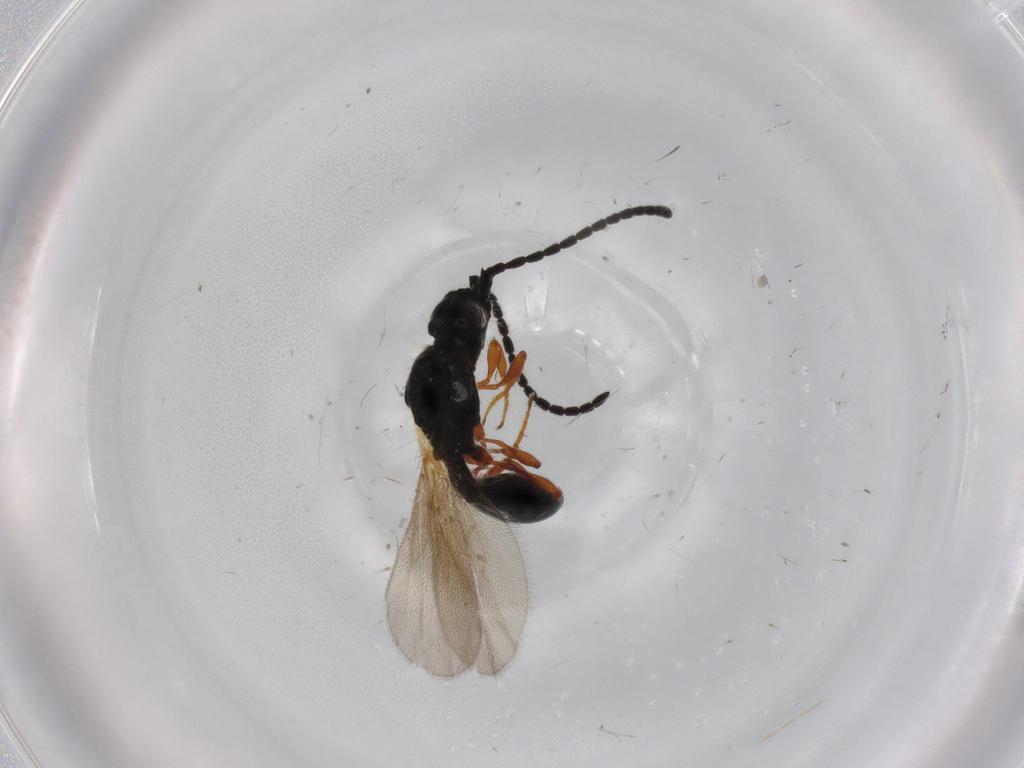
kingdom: Animalia
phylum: Arthropoda
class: Insecta
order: Hymenoptera
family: Diapriidae
